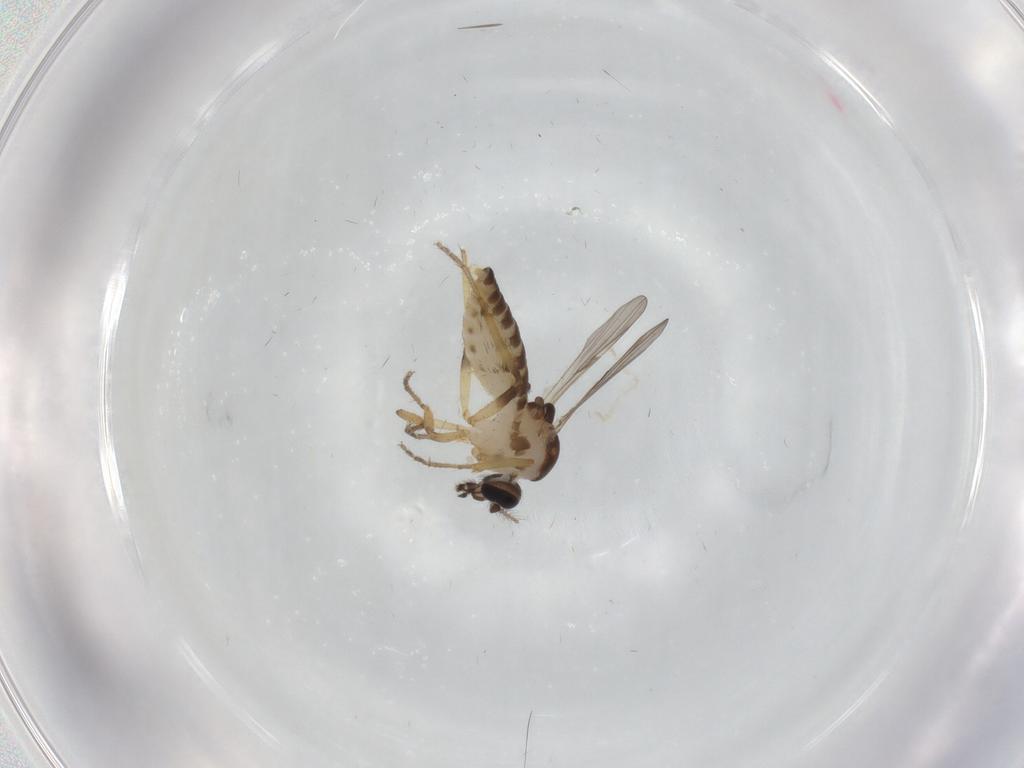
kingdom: Animalia
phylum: Arthropoda
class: Insecta
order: Diptera
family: Ceratopogonidae
